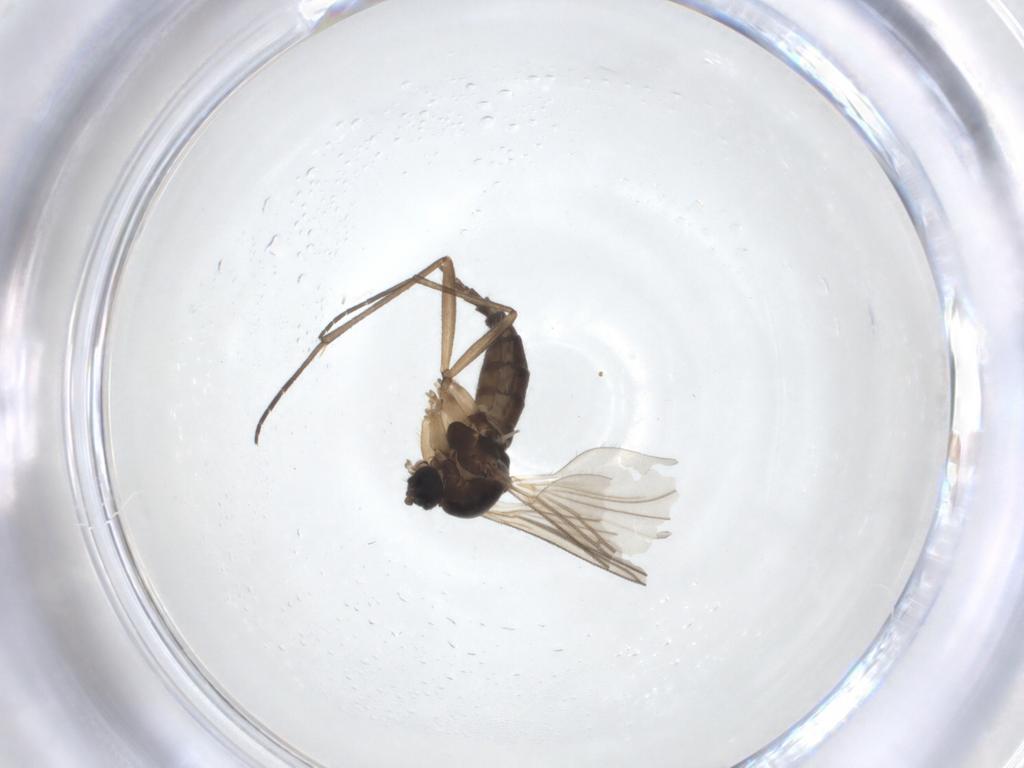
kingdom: Animalia
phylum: Arthropoda
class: Insecta
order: Diptera
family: Sciaridae
